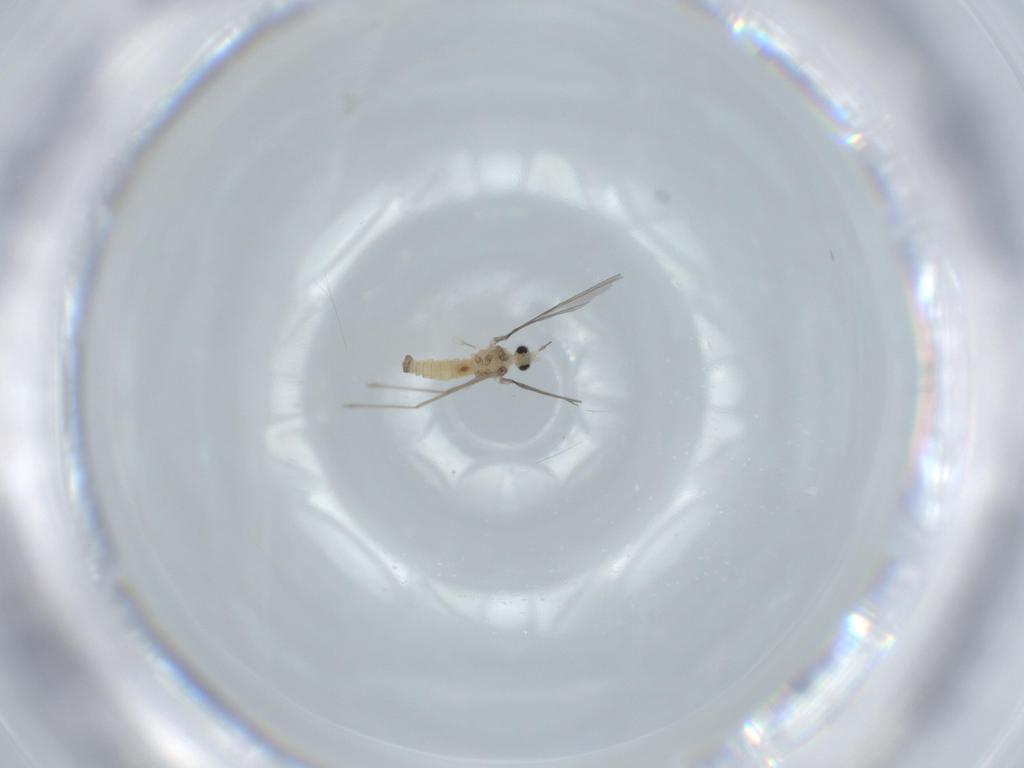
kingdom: Animalia
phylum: Arthropoda
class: Insecta
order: Diptera
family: Cecidomyiidae
